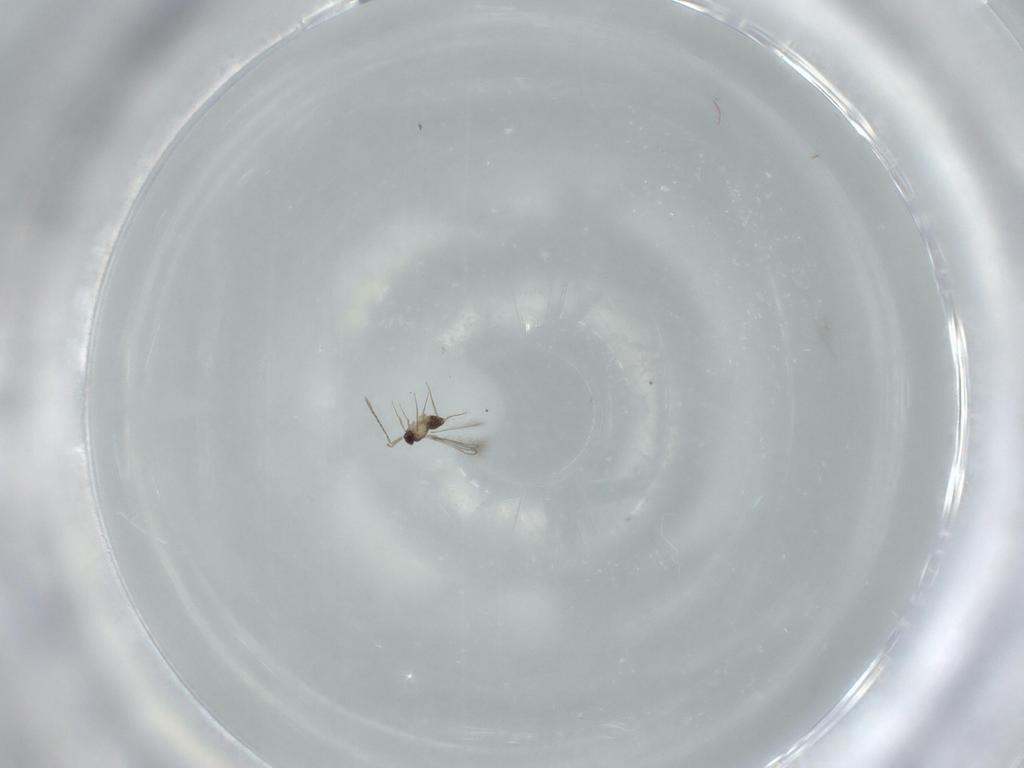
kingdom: Animalia
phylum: Arthropoda
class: Insecta
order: Hymenoptera
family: Mymaridae
